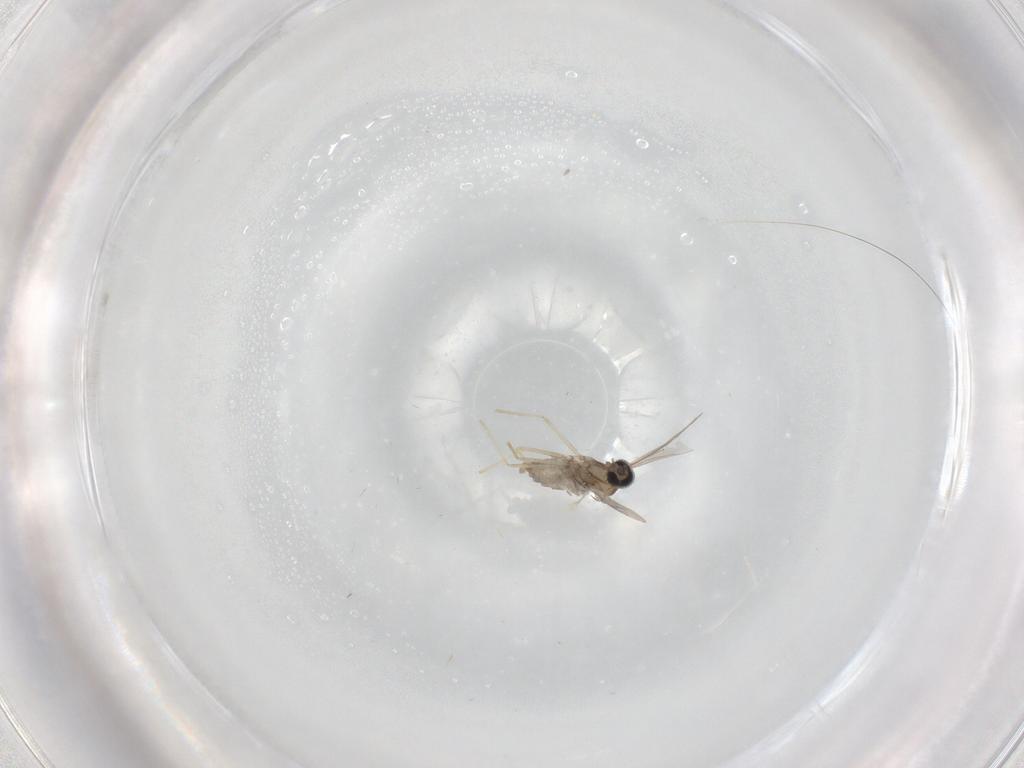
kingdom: Animalia
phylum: Arthropoda
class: Insecta
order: Diptera
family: Cecidomyiidae
